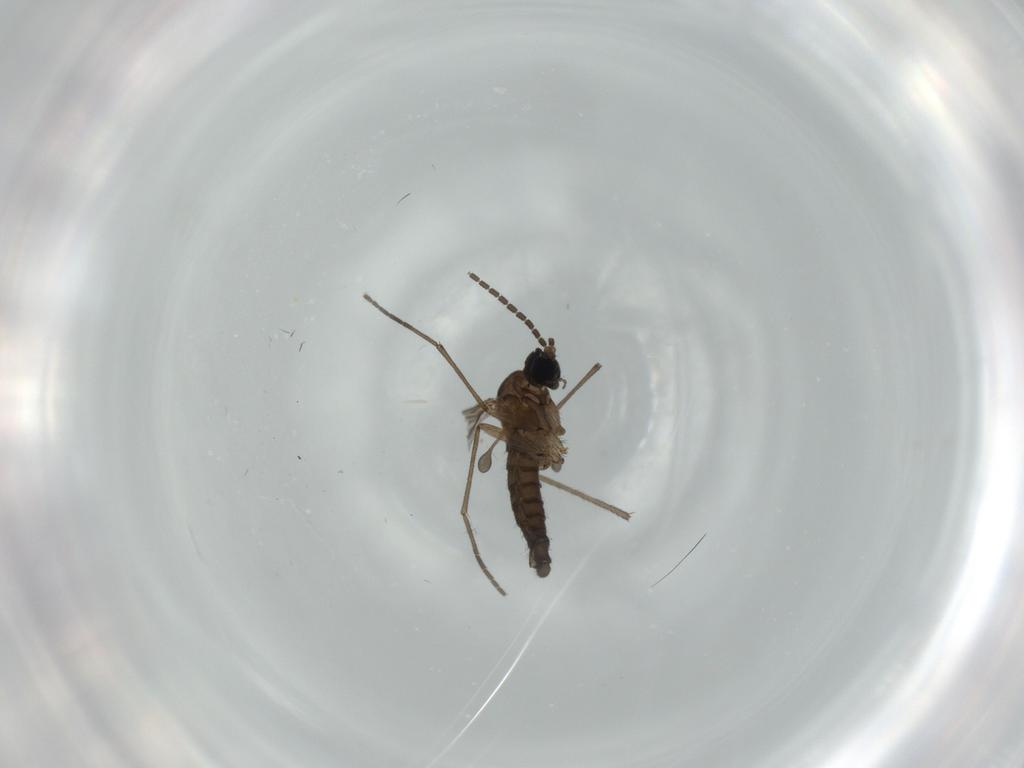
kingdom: Animalia
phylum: Arthropoda
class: Insecta
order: Diptera
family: Sciaridae
